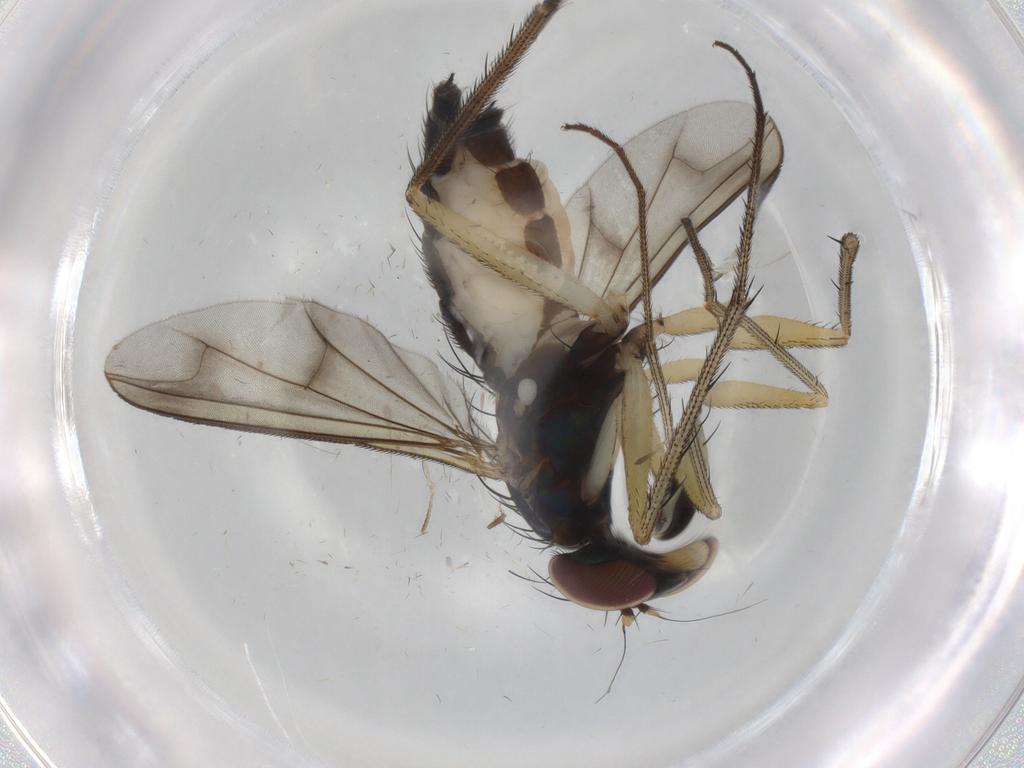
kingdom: Animalia
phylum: Arthropoda
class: Insecta
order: Diptera
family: Dolichopodidae
